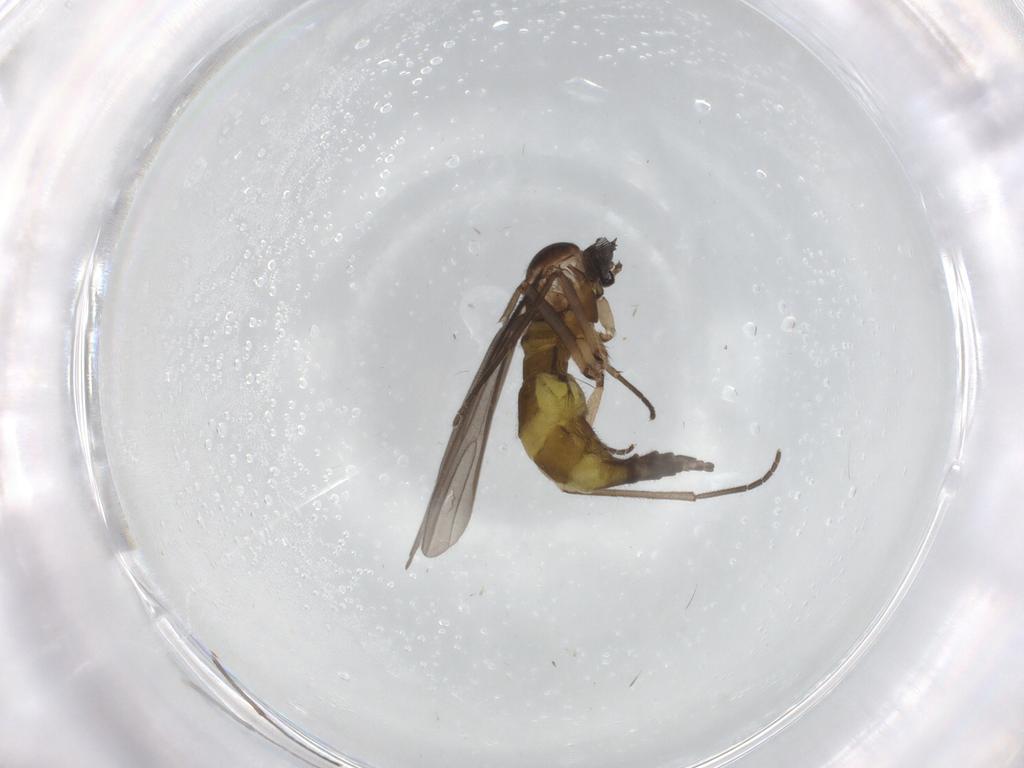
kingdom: Animalia
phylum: Arthropoda
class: Insecta
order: Diptera
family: Sciaridae
